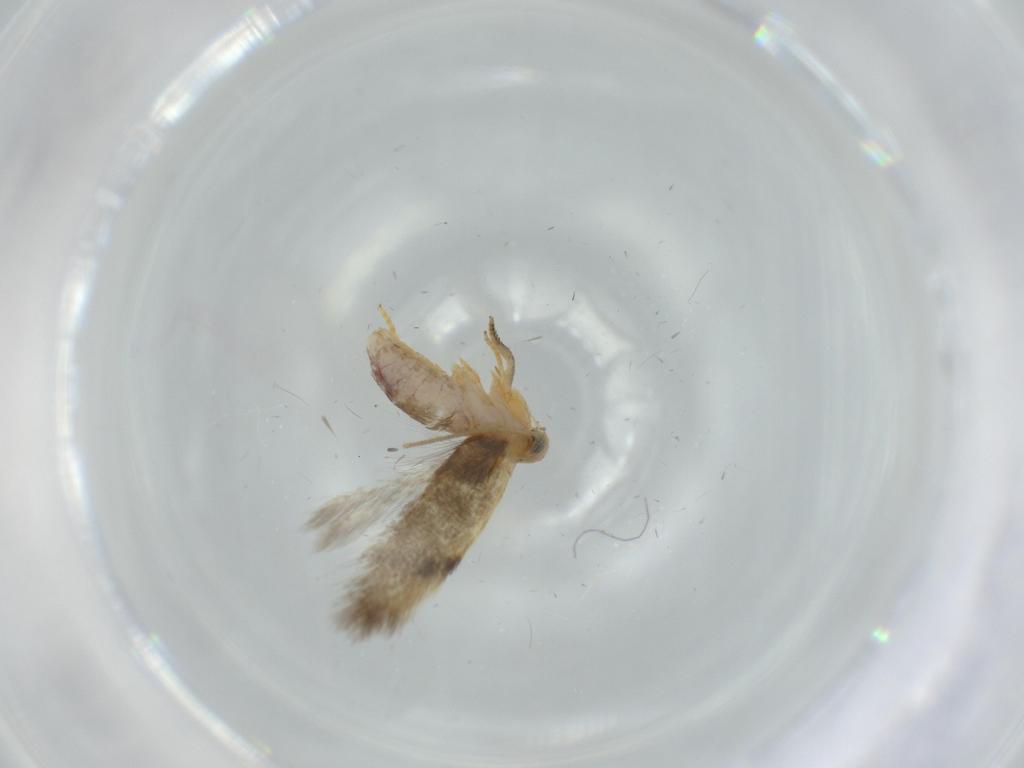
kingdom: Animalia
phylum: Arthropoda
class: Insecta
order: Lepidoptera
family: Nepticulidae
